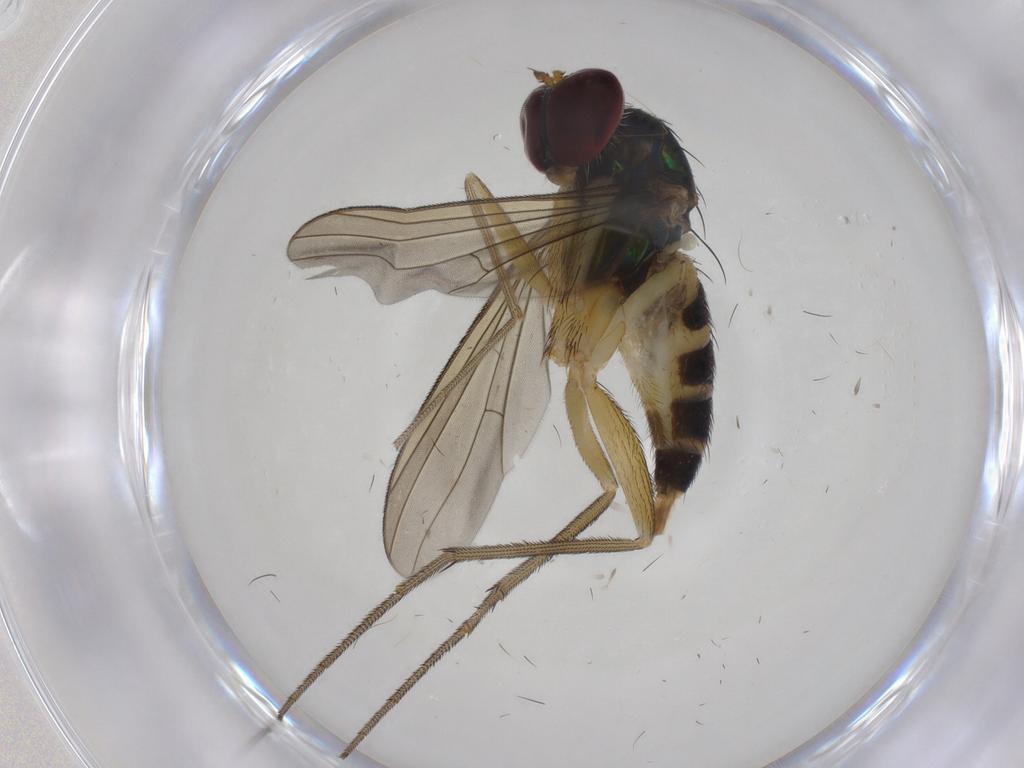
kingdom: Animalia
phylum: Arthropoda
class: Insecta
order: Diptera
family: Dolichopodidae
